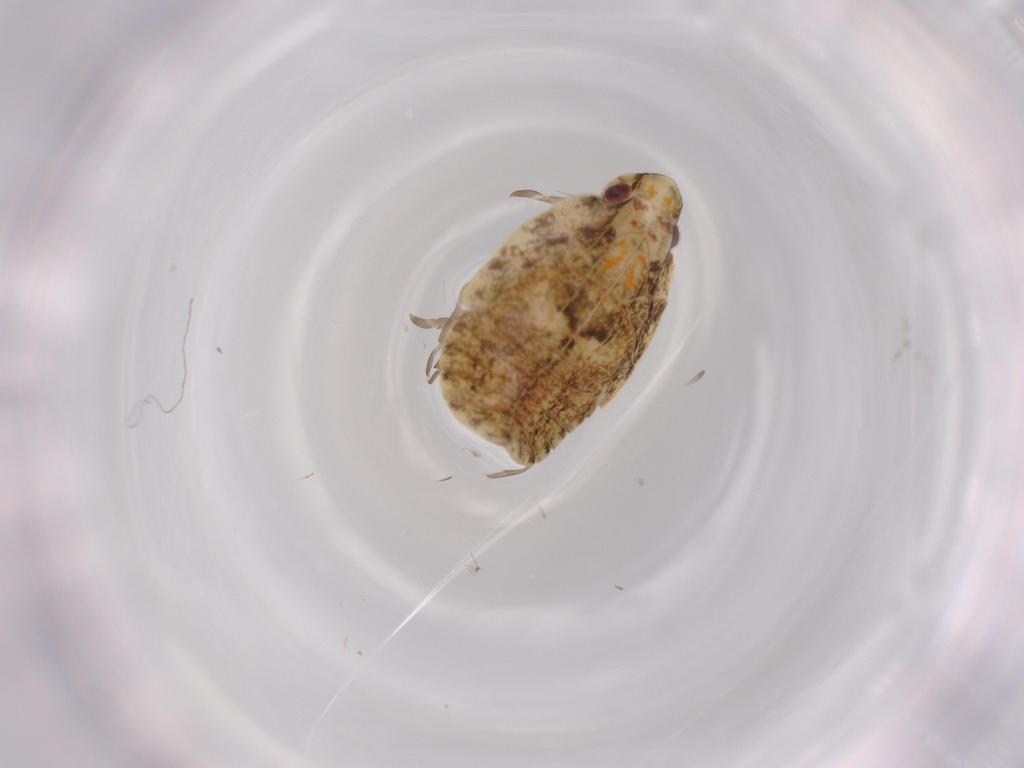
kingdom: Animalia
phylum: Arthropoda
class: Insecta
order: Hemiptera
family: Flatidae
